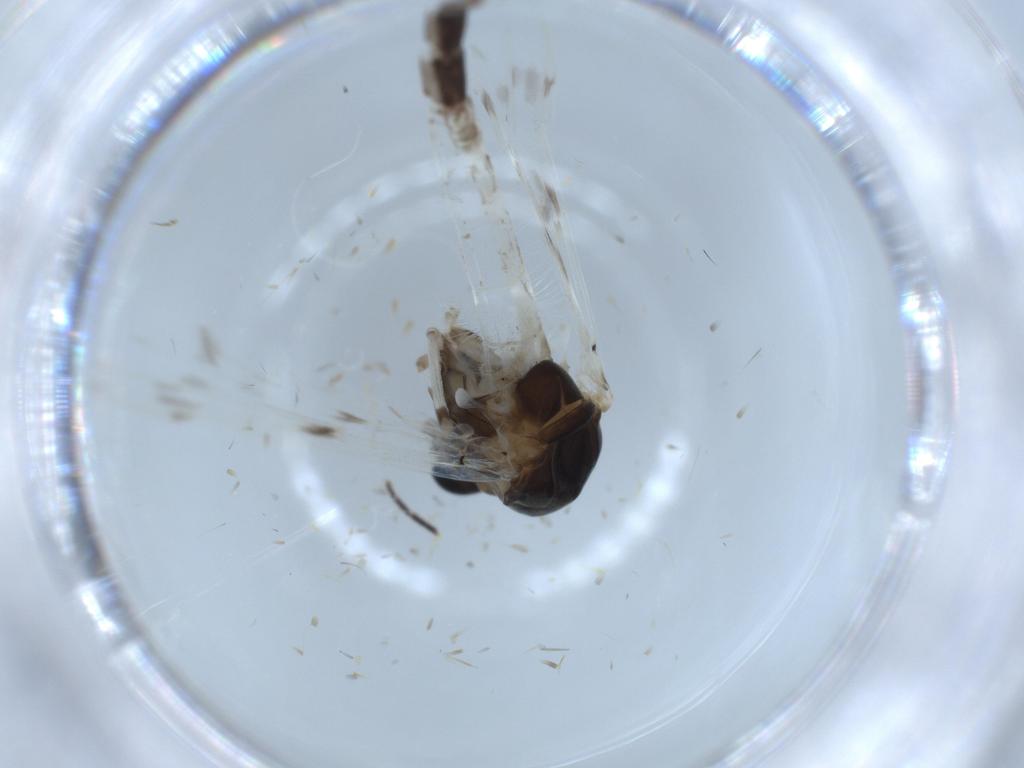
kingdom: Animalia
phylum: Arthropoda
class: Insecta
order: Diptera
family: Chironomidae
